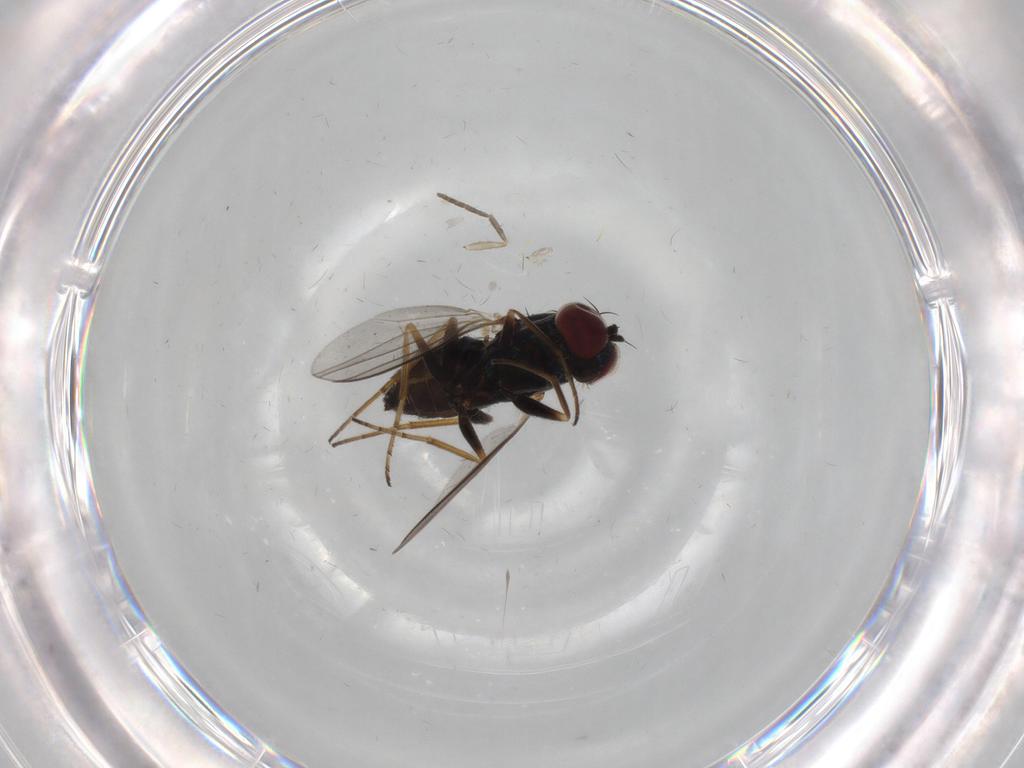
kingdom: Animalia
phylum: Arthropoda
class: Insecta
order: Diptera
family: Dolichopodidae
